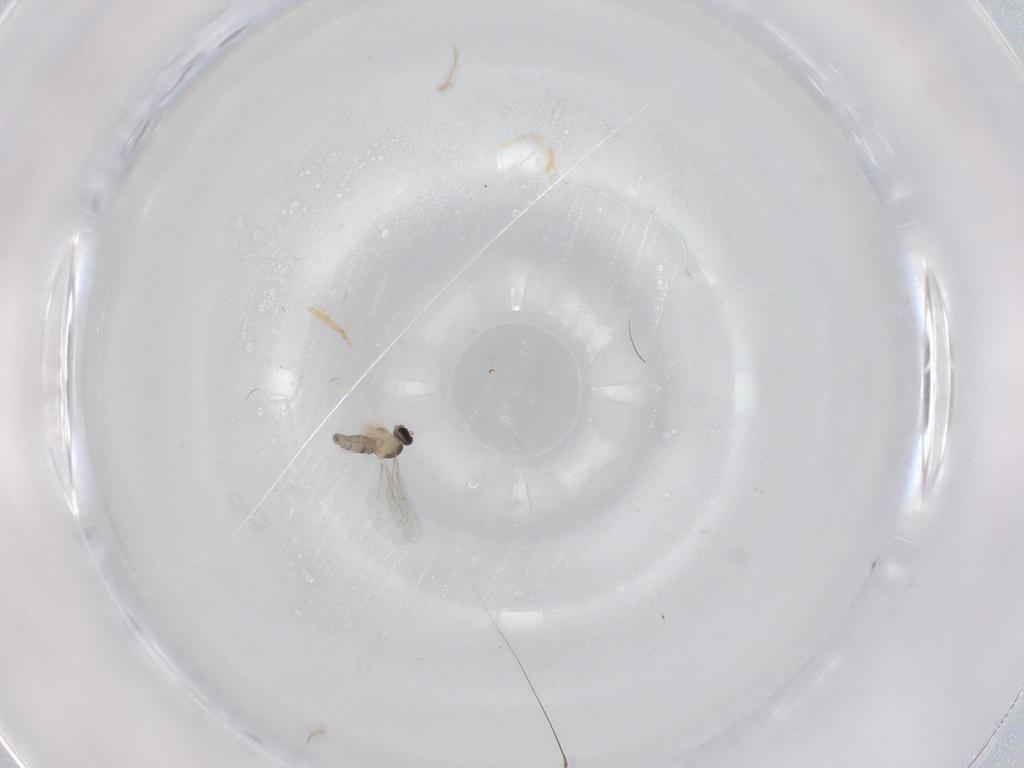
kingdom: Animalia
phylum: Arthropoda
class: Insecta
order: Diptera
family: Cecidomyiidae
